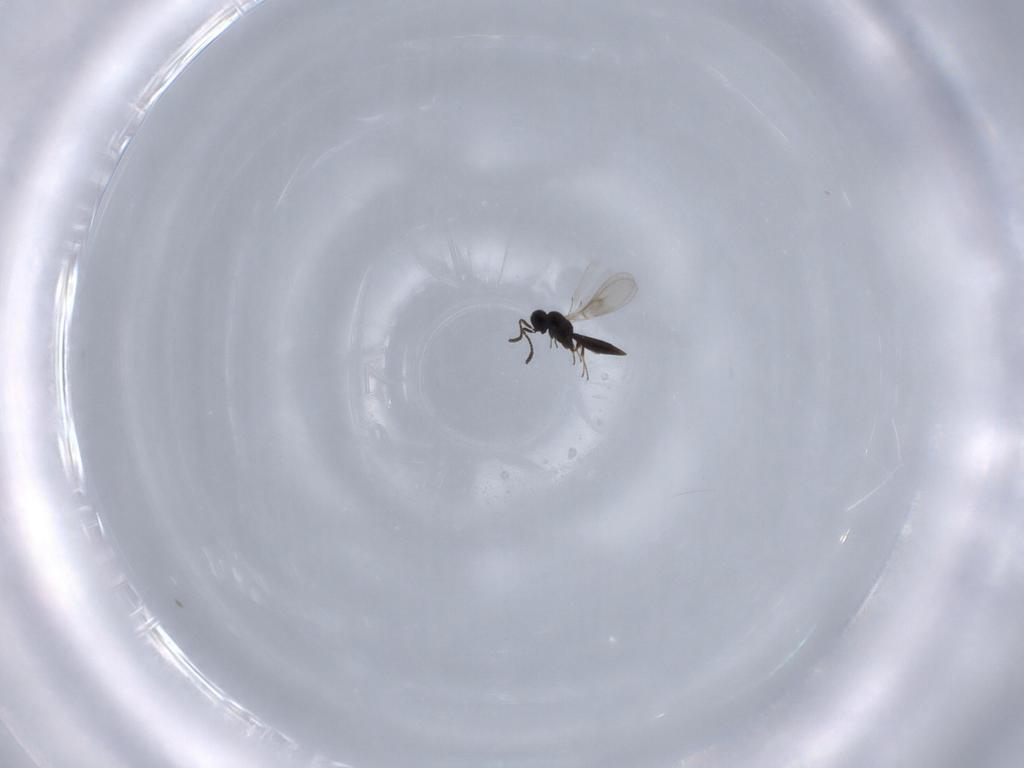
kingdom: Animalia
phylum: Arthropoda
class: Insecta
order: Hymenoptera
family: Scelionidae
